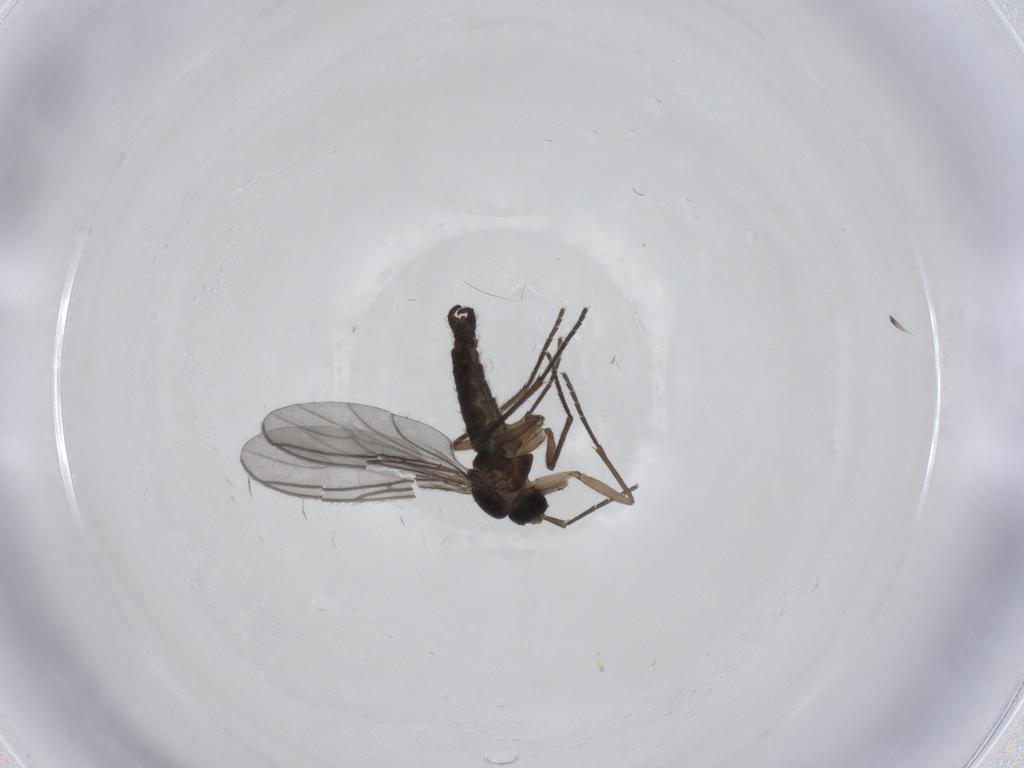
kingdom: Animalia
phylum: Arthropoda
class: Insecta
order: Diptera
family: Sciaridae
